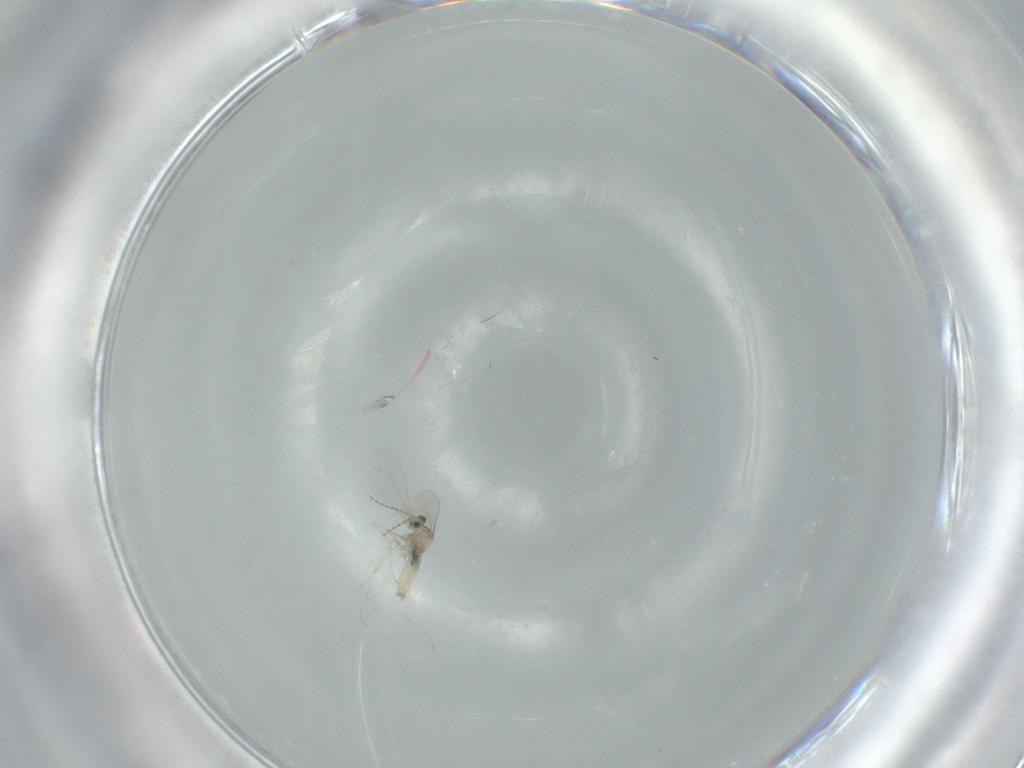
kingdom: Animalia
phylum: Arthropoda
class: Insecta
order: Diptera
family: Cecidomyiidae
